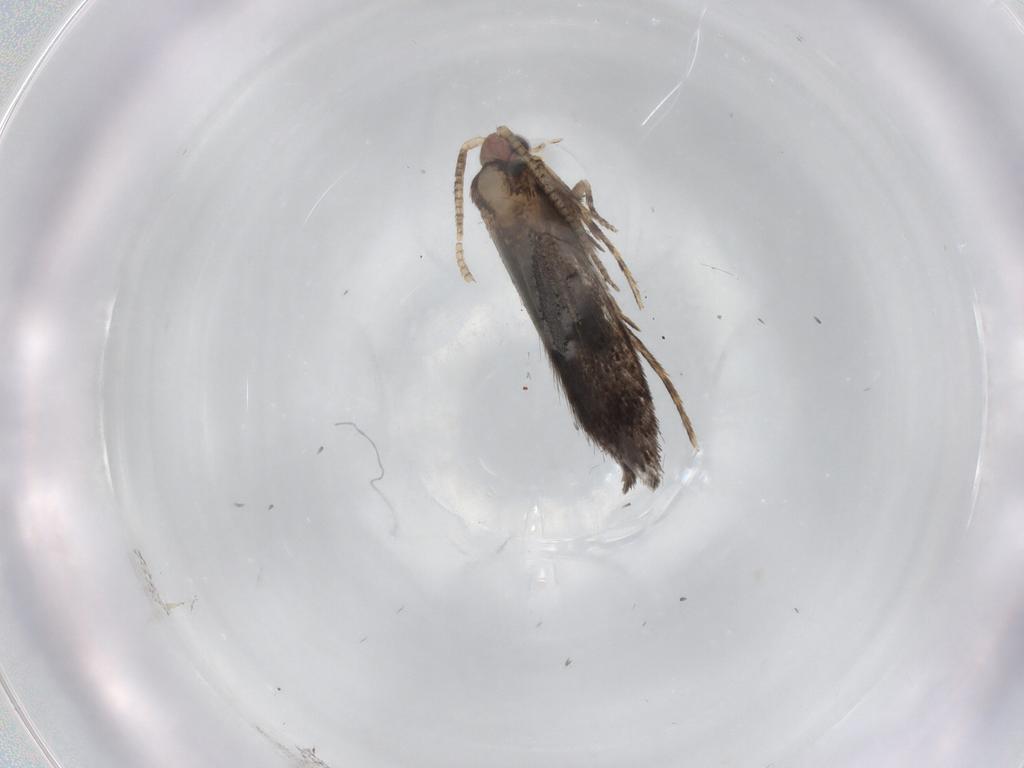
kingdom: Animalia
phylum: Arthropoda
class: Insecta
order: Lepidoptera
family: Tineidae
